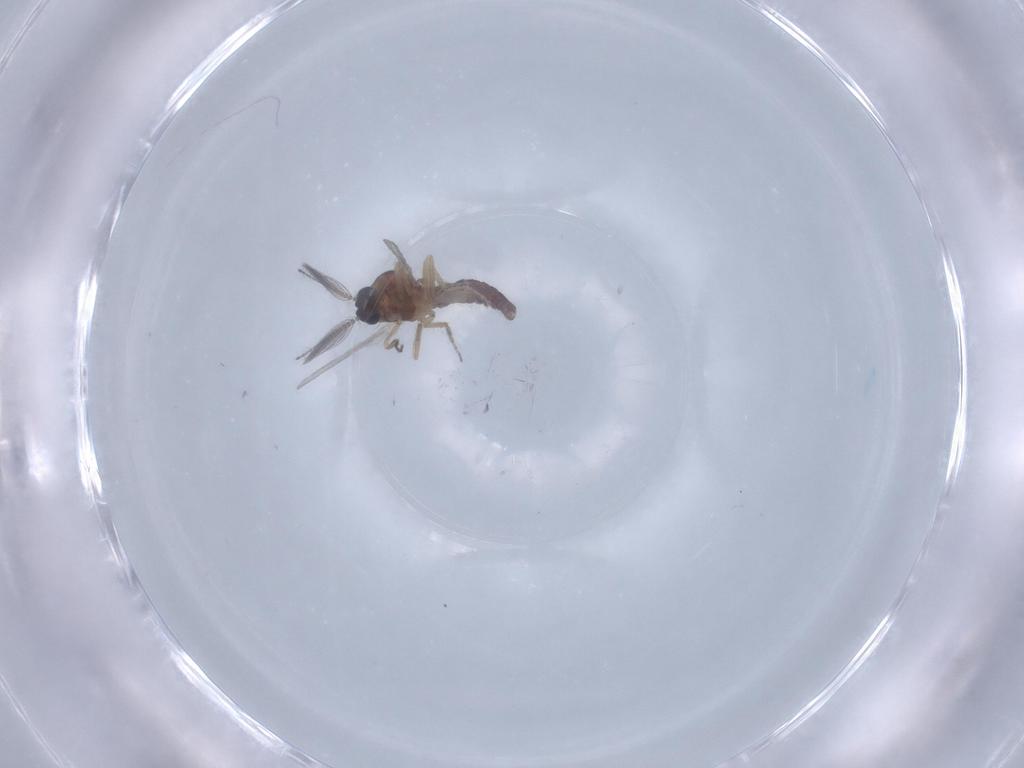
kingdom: Animalia
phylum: Arthropoda
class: Insecta
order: Diptera
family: Ceratopogonidae
